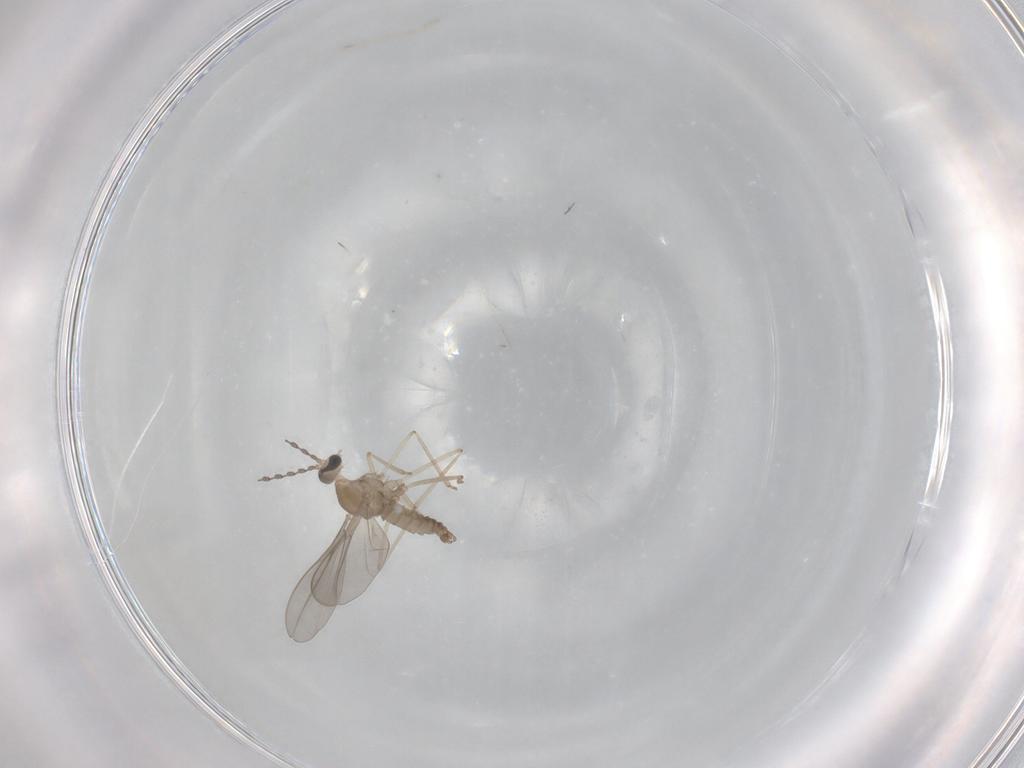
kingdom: Animalia
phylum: Arthropoda
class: Insecta
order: Diptera
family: Cecidomyiidae
